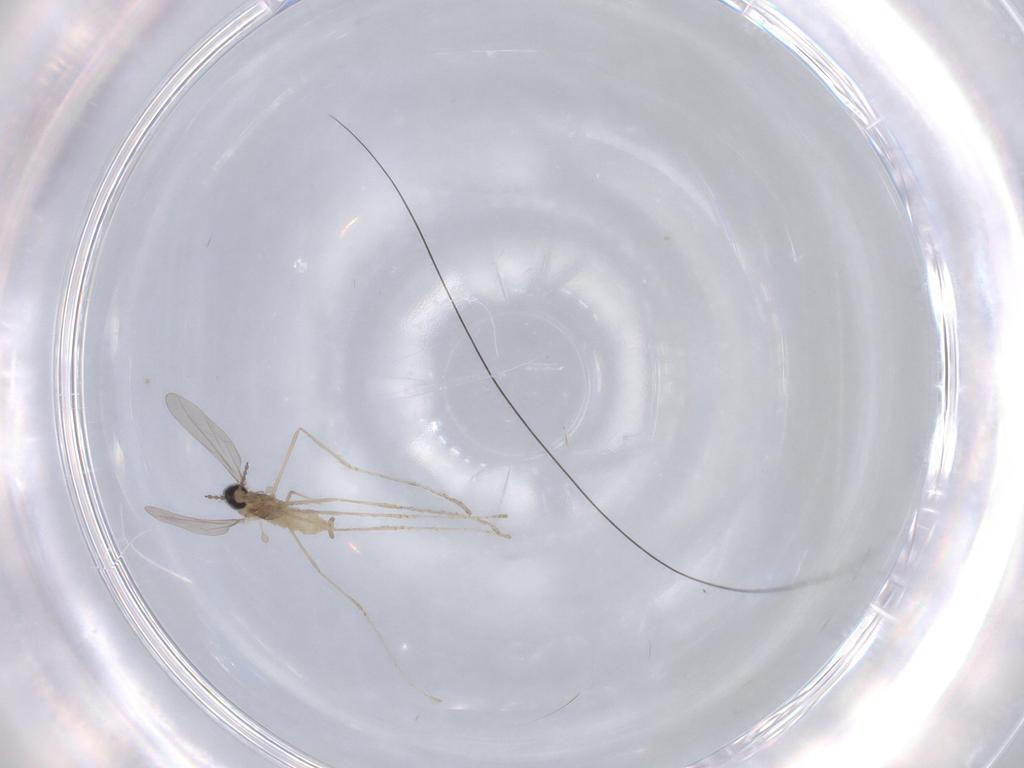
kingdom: Animalia
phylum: Arthropoda
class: Insecta
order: Diptera
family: Cecidomyiidae
